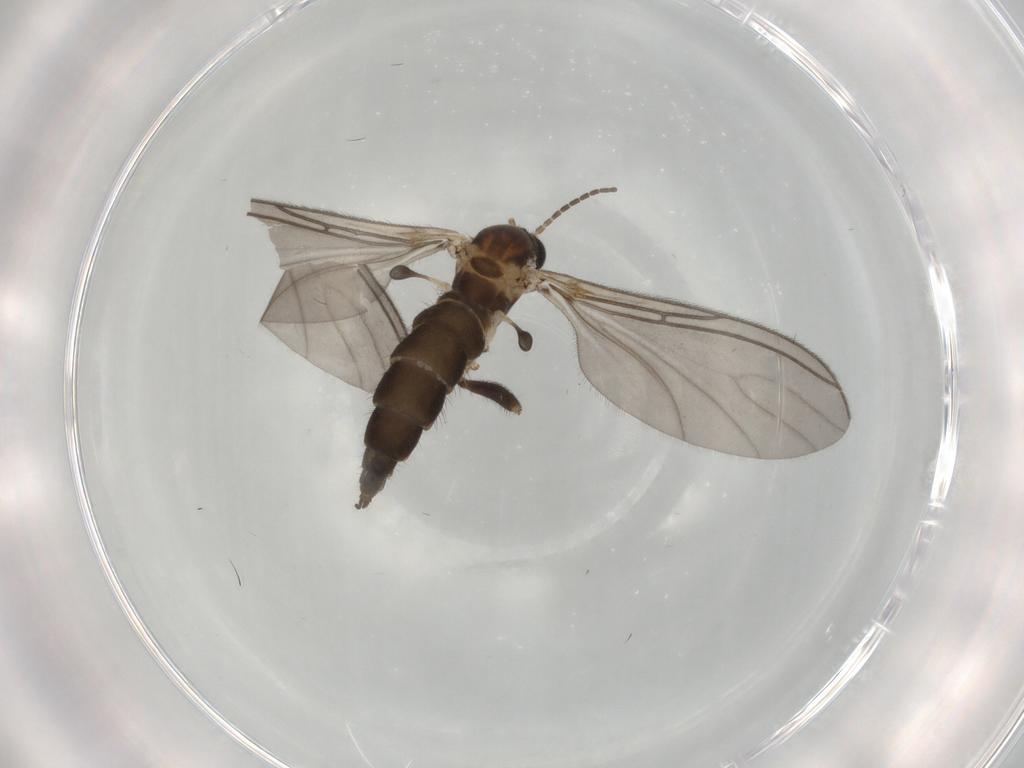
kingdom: Animalia
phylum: Arthropoda
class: Insecta
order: Diptera
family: Sciaridae
